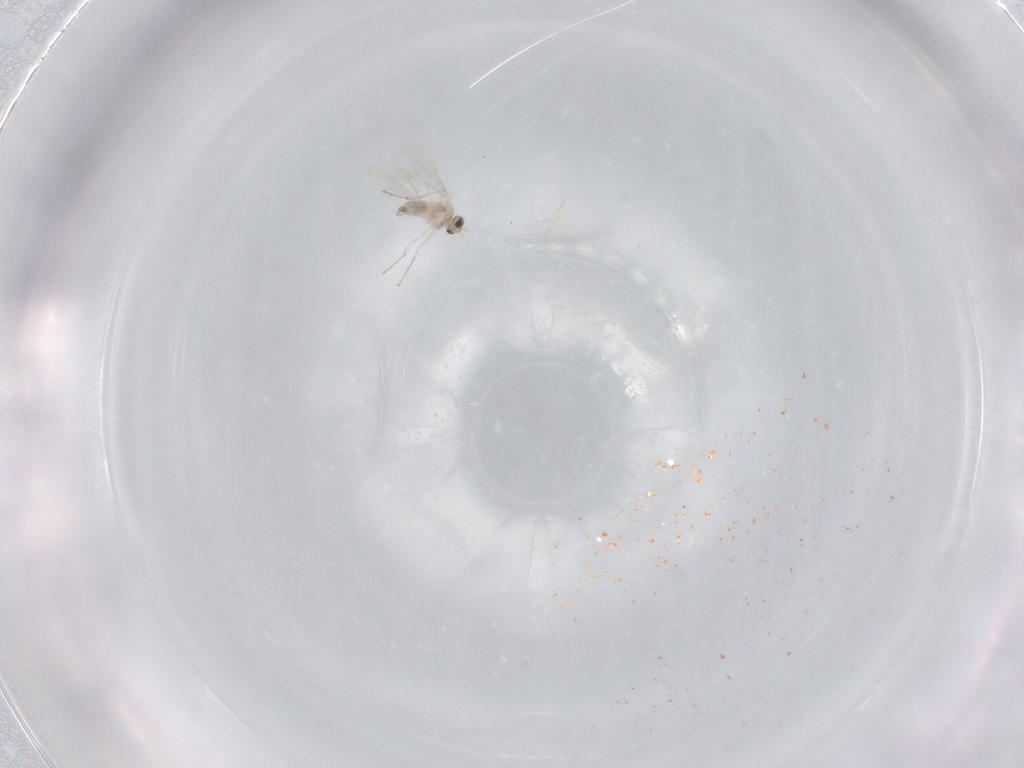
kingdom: Animalia
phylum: Arthropoda
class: Insecta
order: Diptera
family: Cecidomyiidae
